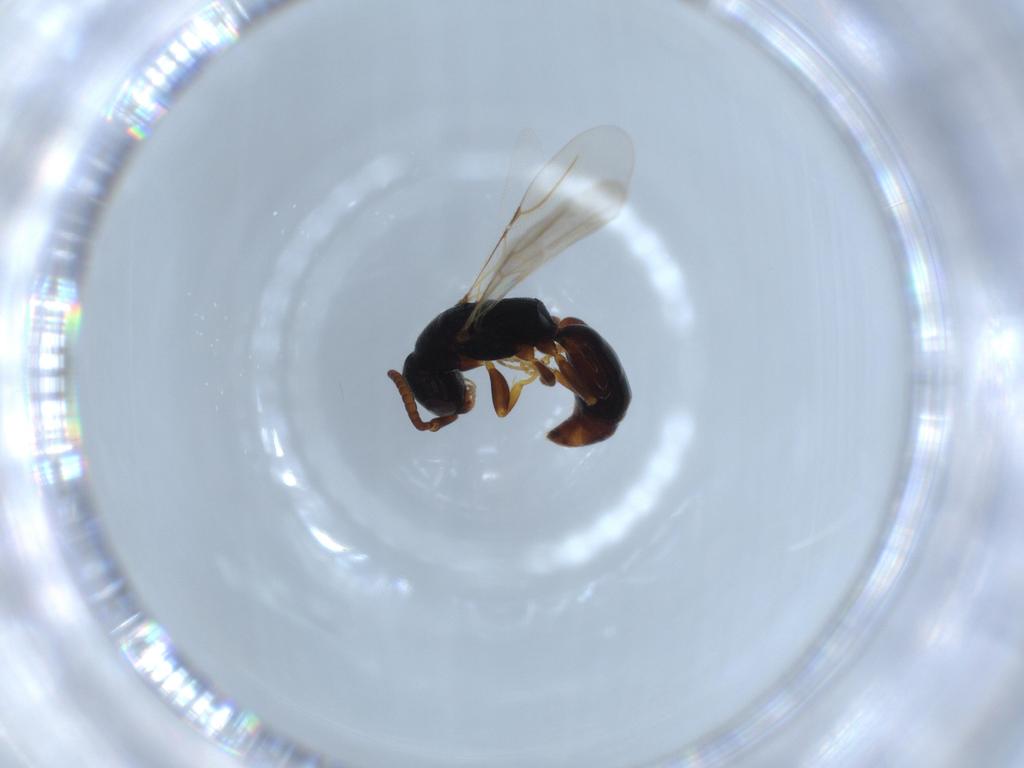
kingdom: Animalia
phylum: Arthropoda
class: Insecta
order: Hymenoptera
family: Bethylidae
